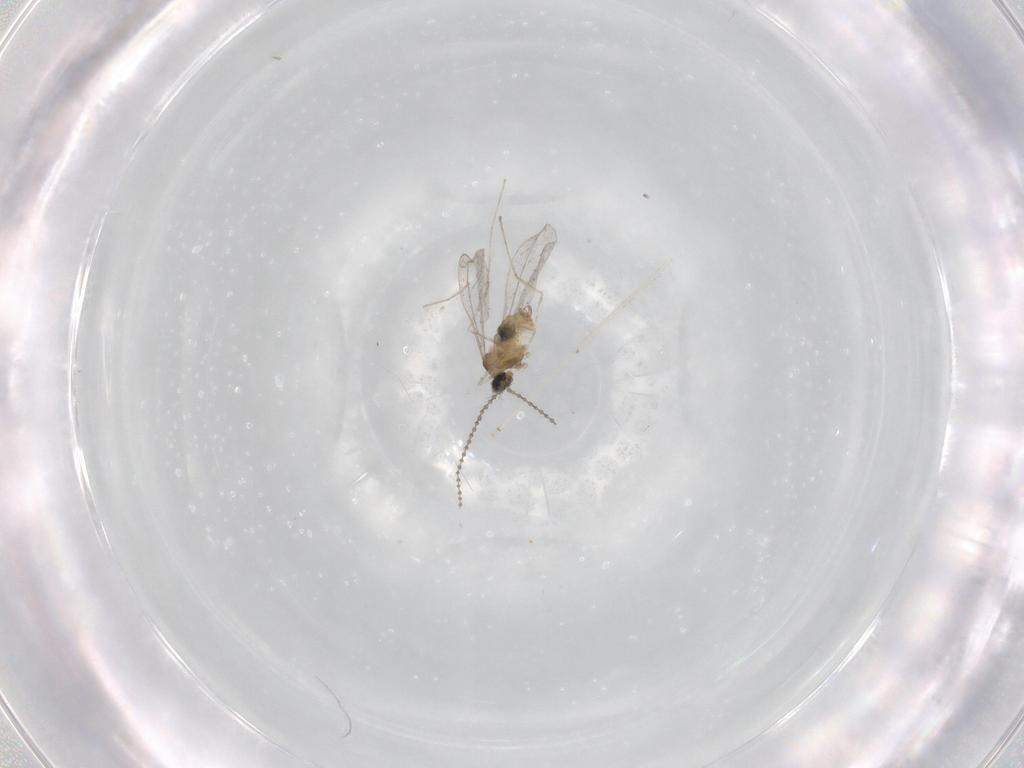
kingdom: Animalia
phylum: Arthropoda
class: Insecta
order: Diptera
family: Cecidomyiidae
